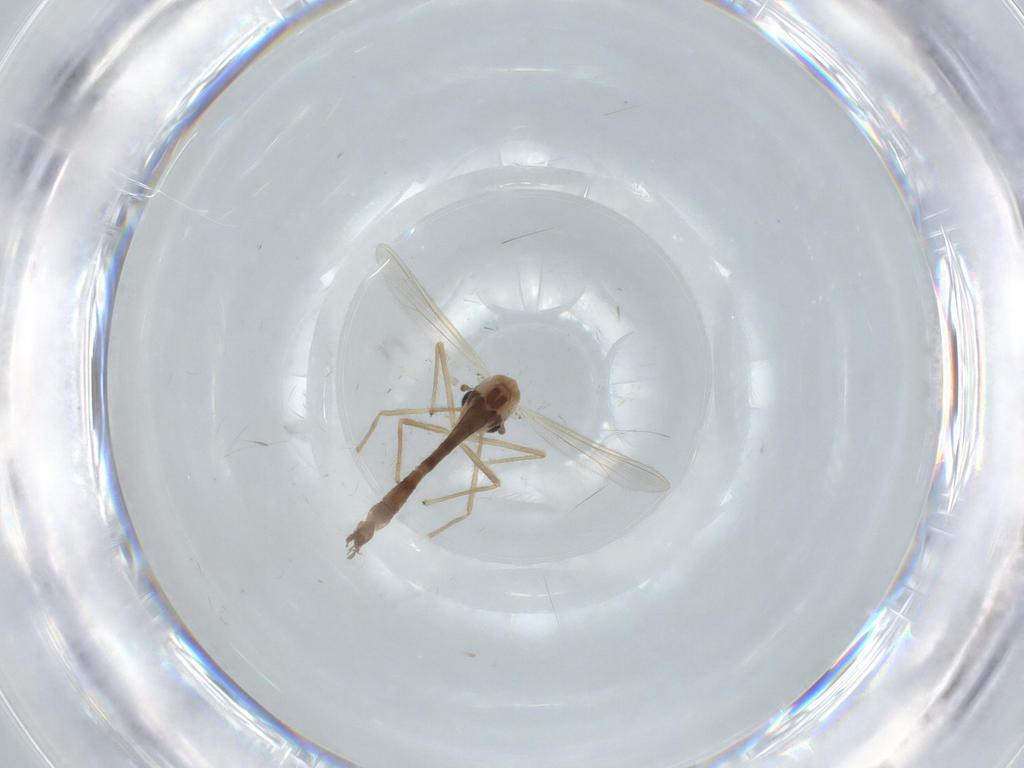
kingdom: Animalia
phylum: Arthropoda
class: Insecta
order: Diptera
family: Chironomidae
